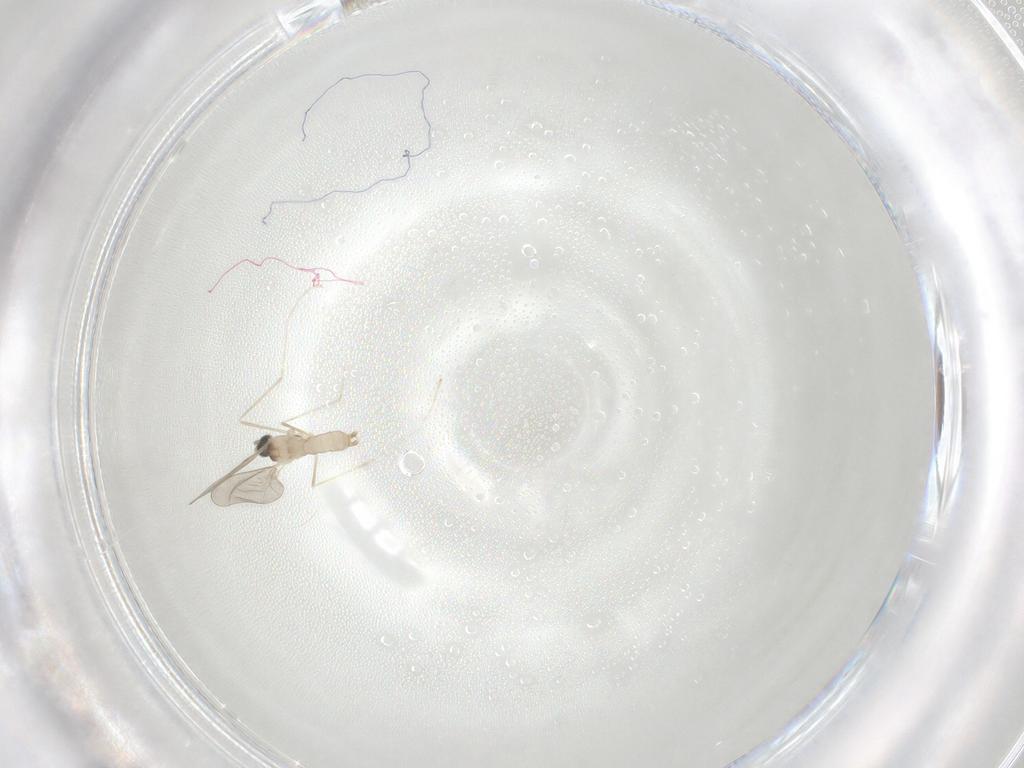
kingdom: Animalia
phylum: Arthropoda
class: Insecta
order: Diptera
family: Cecidomyiidae
